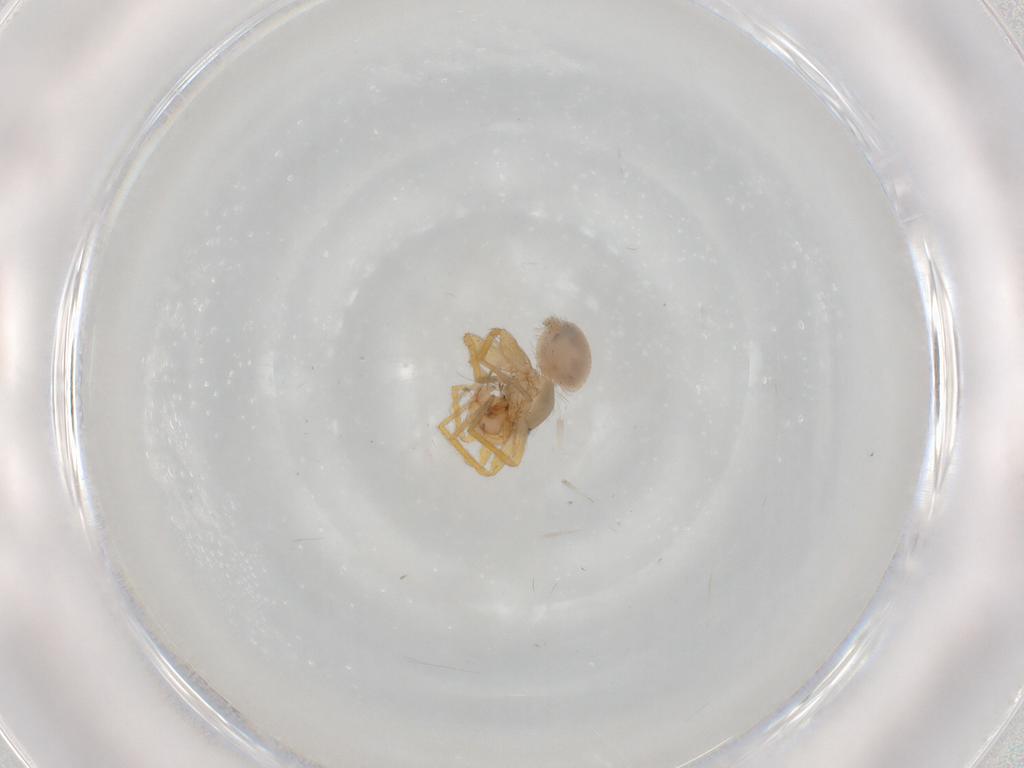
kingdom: Animalia
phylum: Arthropoda
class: Arachnida
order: Araneae
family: Oonopidae
